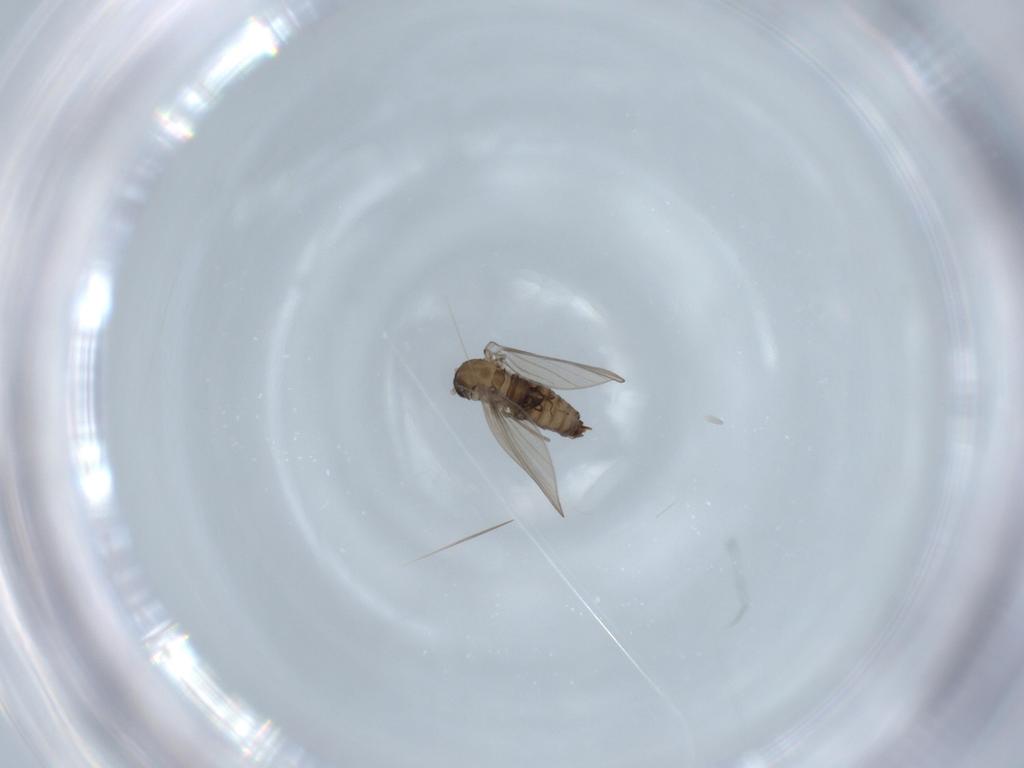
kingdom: Animalia
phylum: Arthropoda
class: Insecta
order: Diptera
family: Psychodidae
